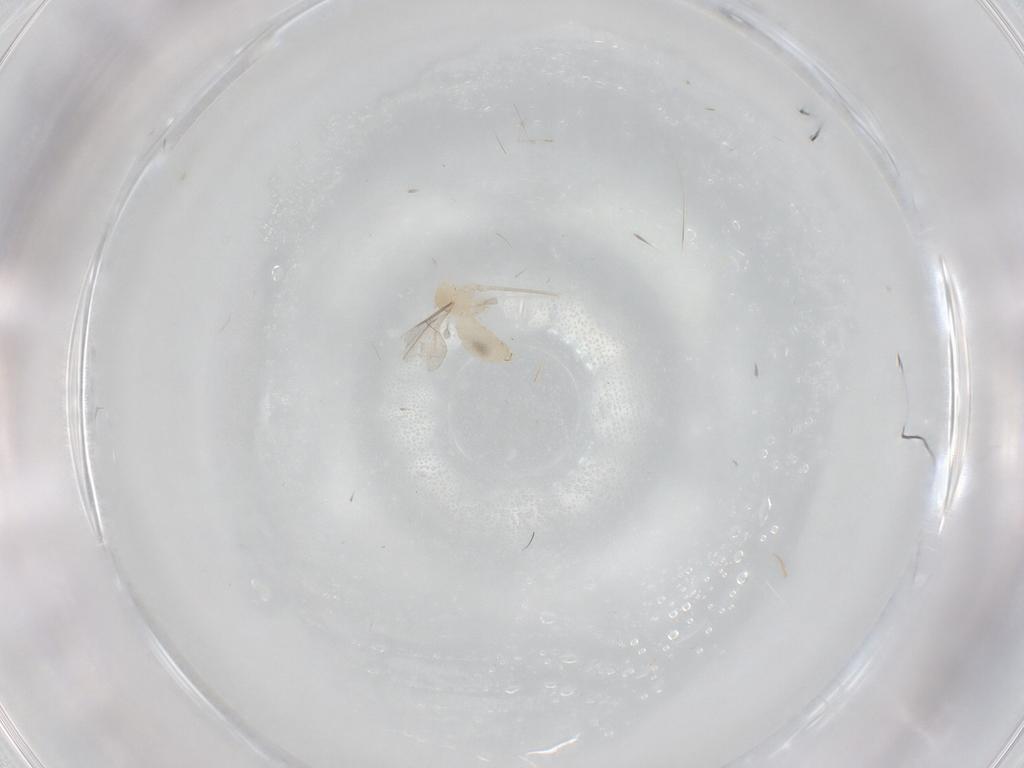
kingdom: Animalia
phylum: Arthropoda
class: Insecta
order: Diptera
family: Cecidomyiidae
